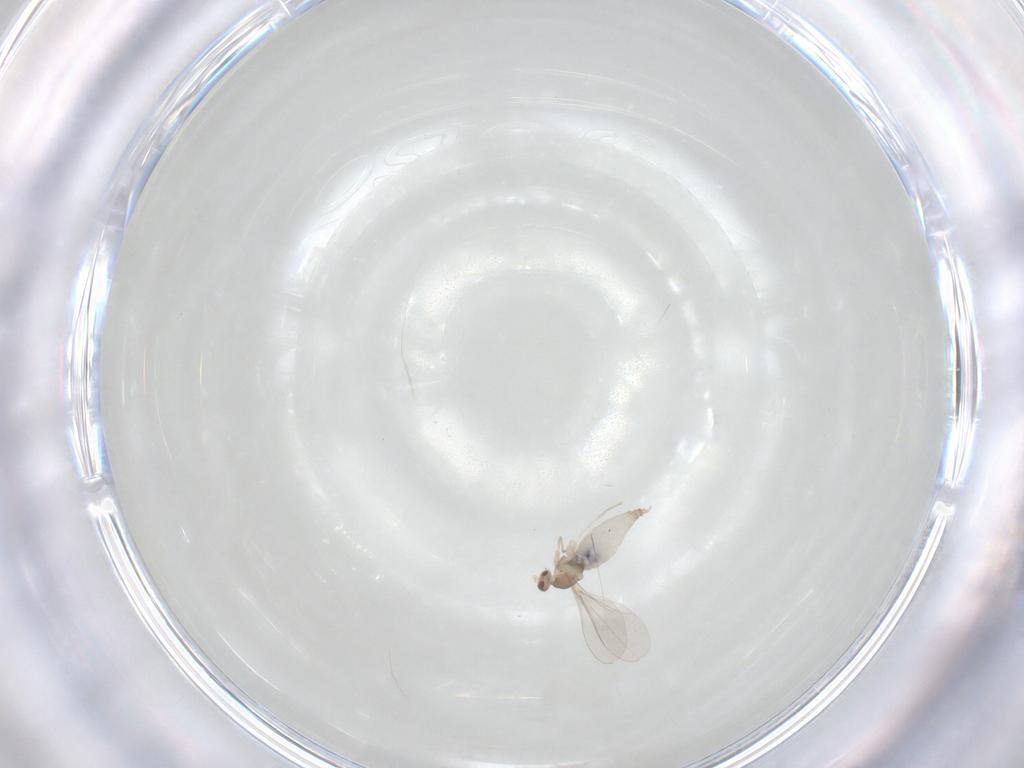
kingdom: Animalia
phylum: Arthropoda
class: Insecta
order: Diptera
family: Cecidomyiidae
